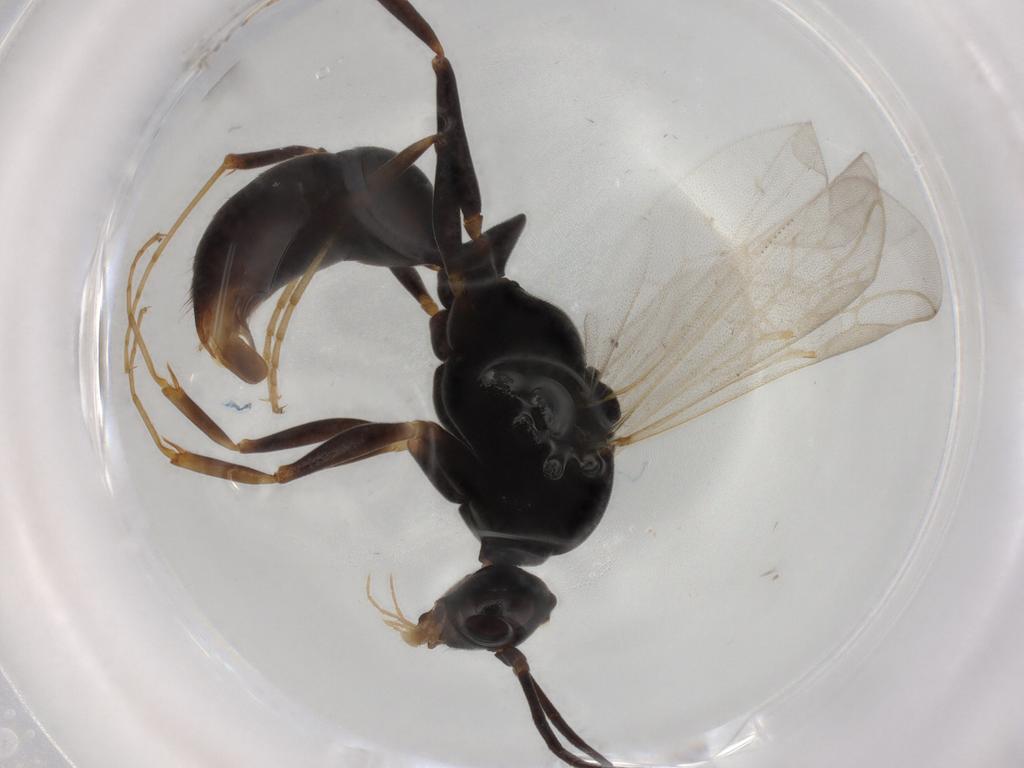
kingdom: Animalia
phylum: Arthropoda
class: Insecta
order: Hymenoptera
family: Formicidae
